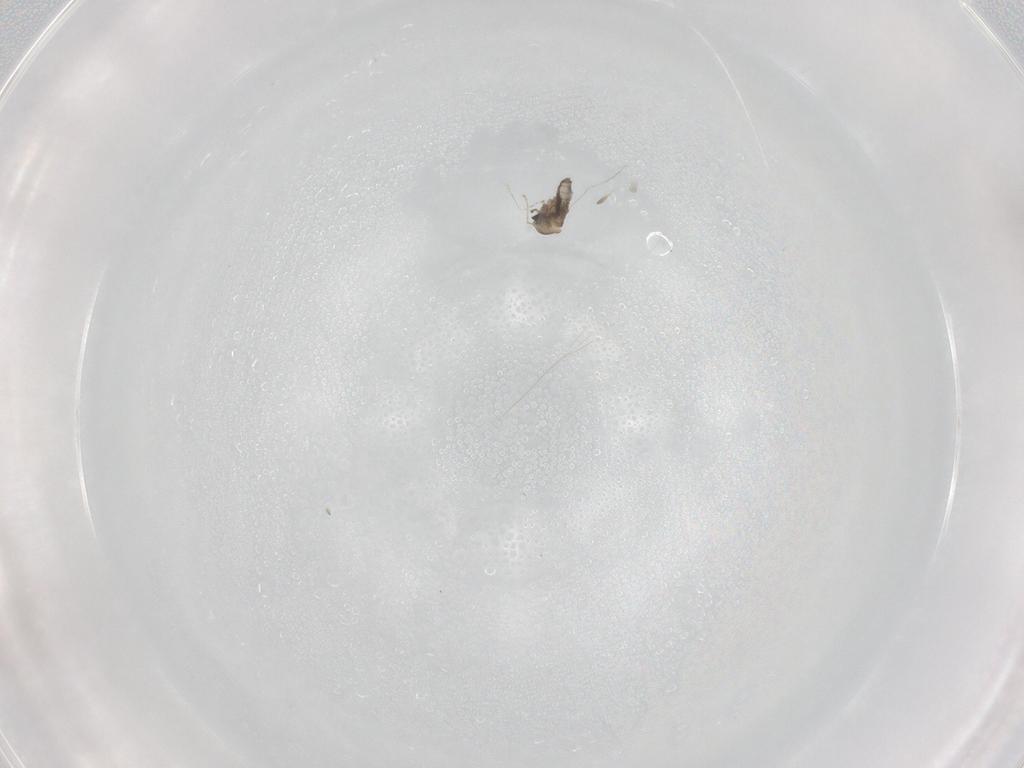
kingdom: Animalia
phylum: Arthropoda
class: Insecta
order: Diptera
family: Phoridae
